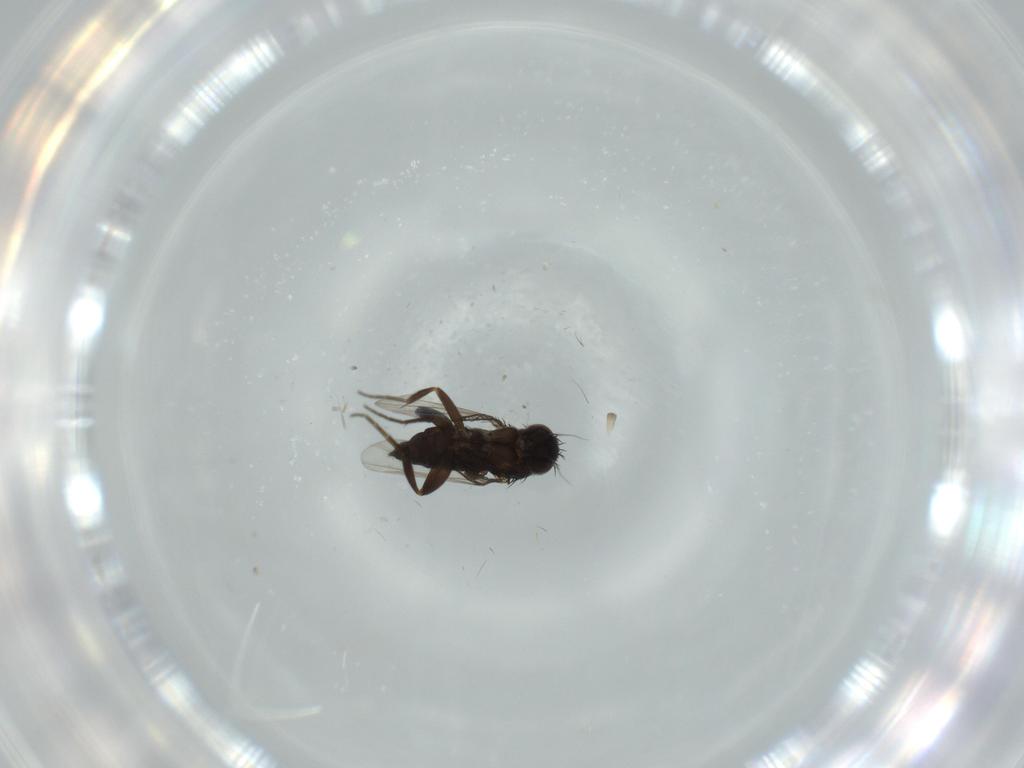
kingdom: Animalia
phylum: Arthropoda
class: Insecta
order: Diptera
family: Phoridae
